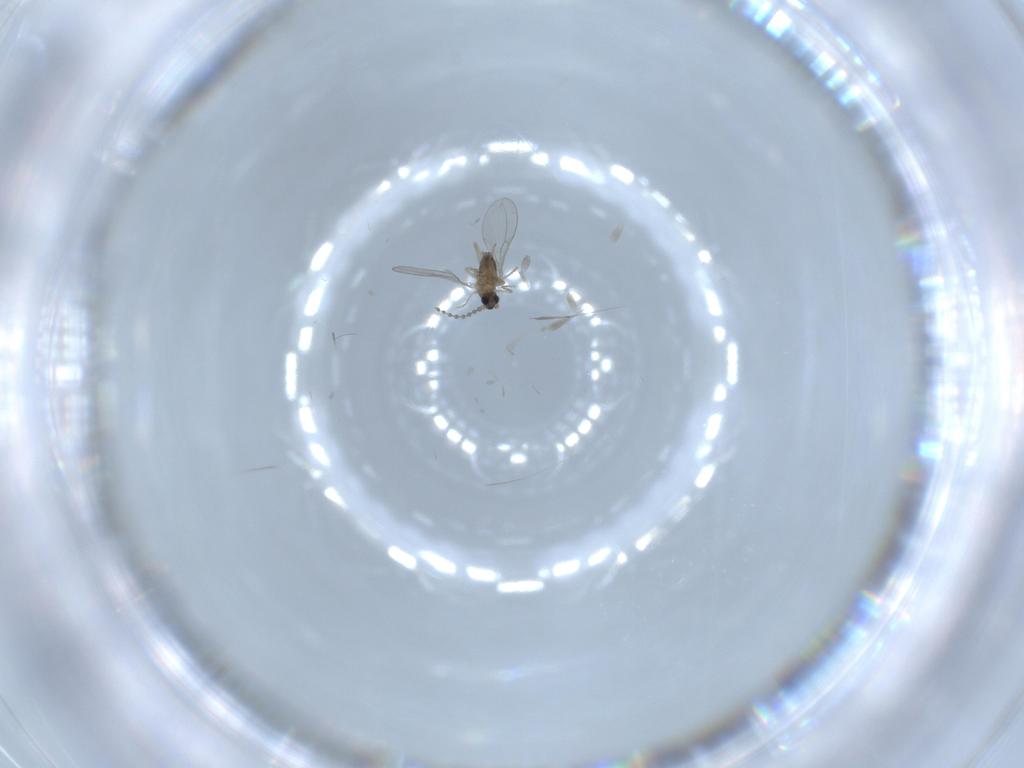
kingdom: Animalia
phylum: Arthropoda
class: Insecta
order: Diptera
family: Cecidomyiidae
